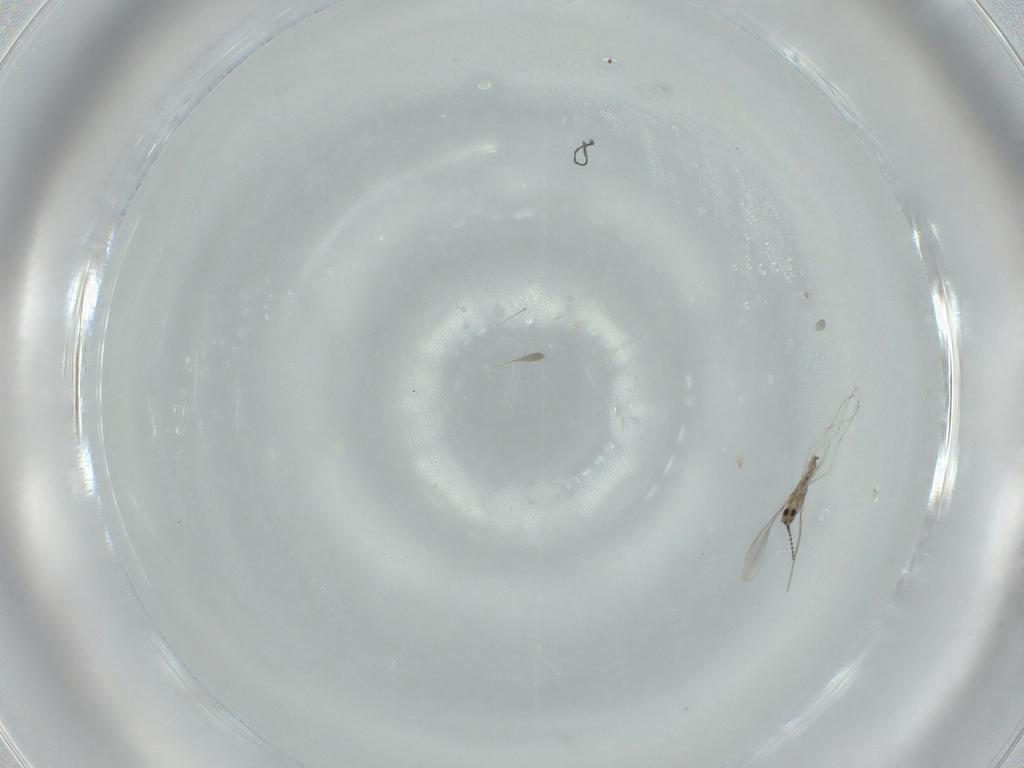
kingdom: Animalia
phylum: Arthropoda
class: Insecta
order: Diptera
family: Cecidomyiidae
